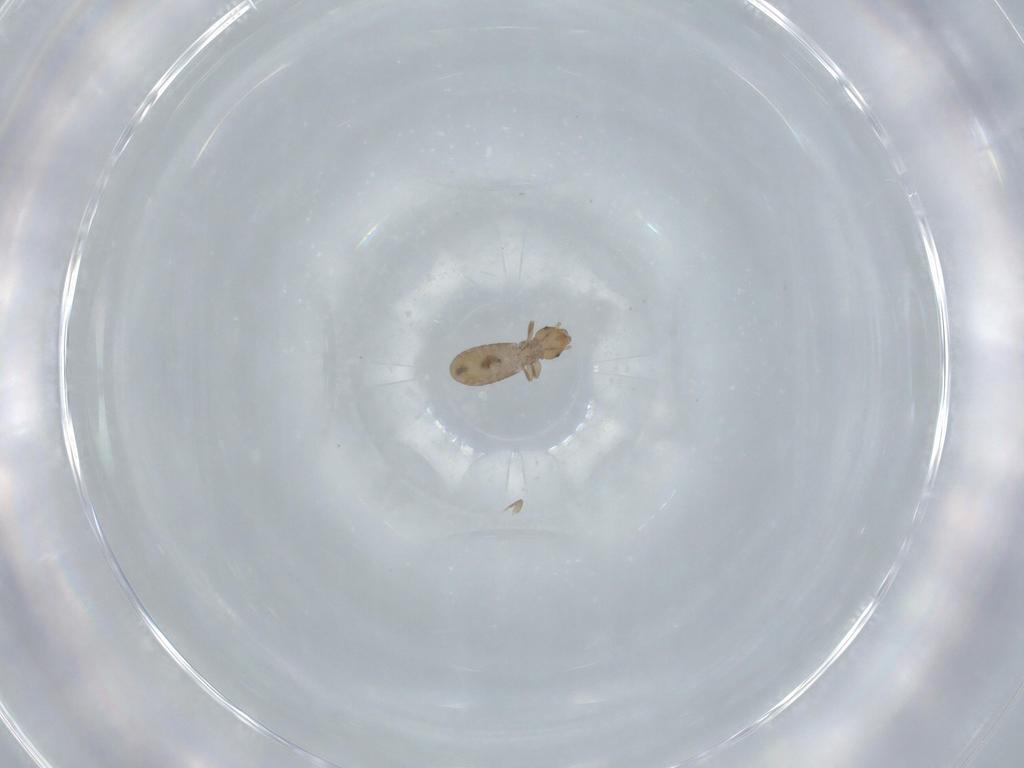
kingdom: Animalia
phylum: Arthropoda
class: Insecta
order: Psocodea
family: Liposcelididae
